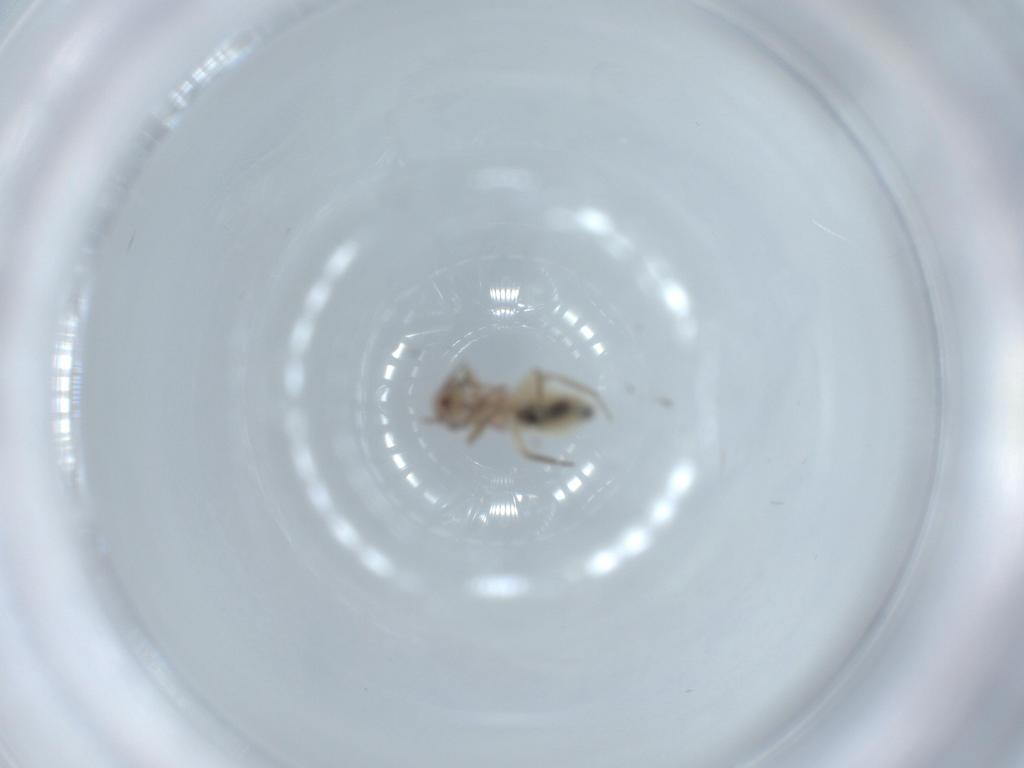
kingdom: Animalia
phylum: Arthropoda
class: Insecta
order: Psocodea
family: Lepidopsocidae
